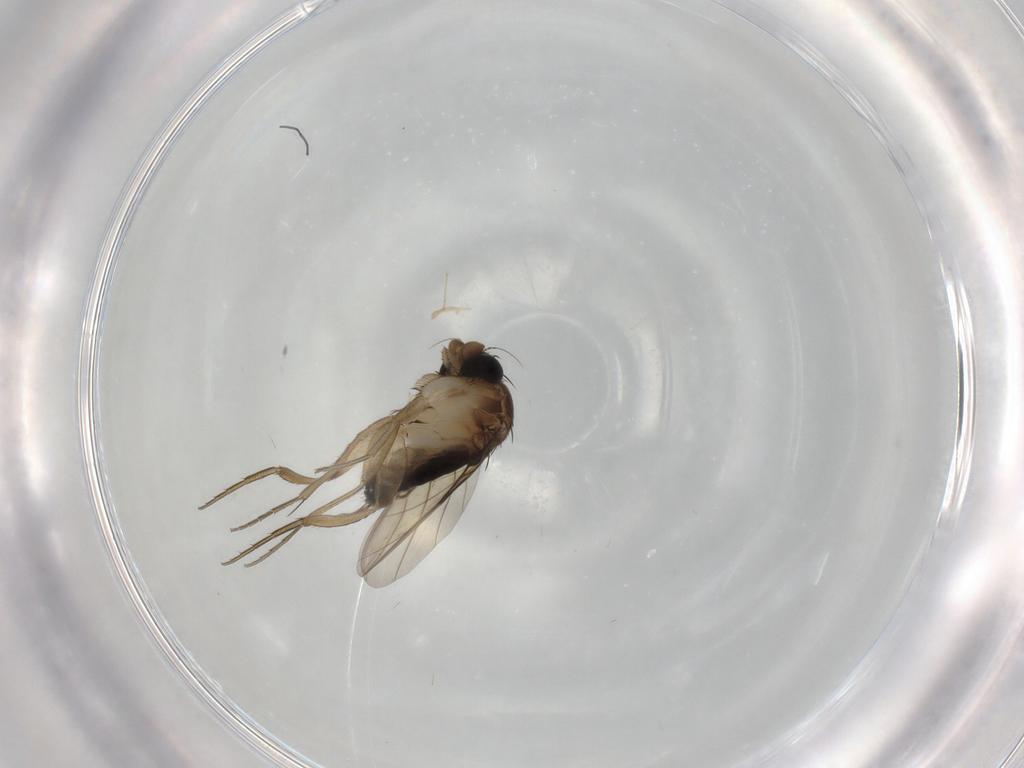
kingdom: Animalia
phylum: Arthropoda
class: Insecta
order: Diptera
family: Phoridae
